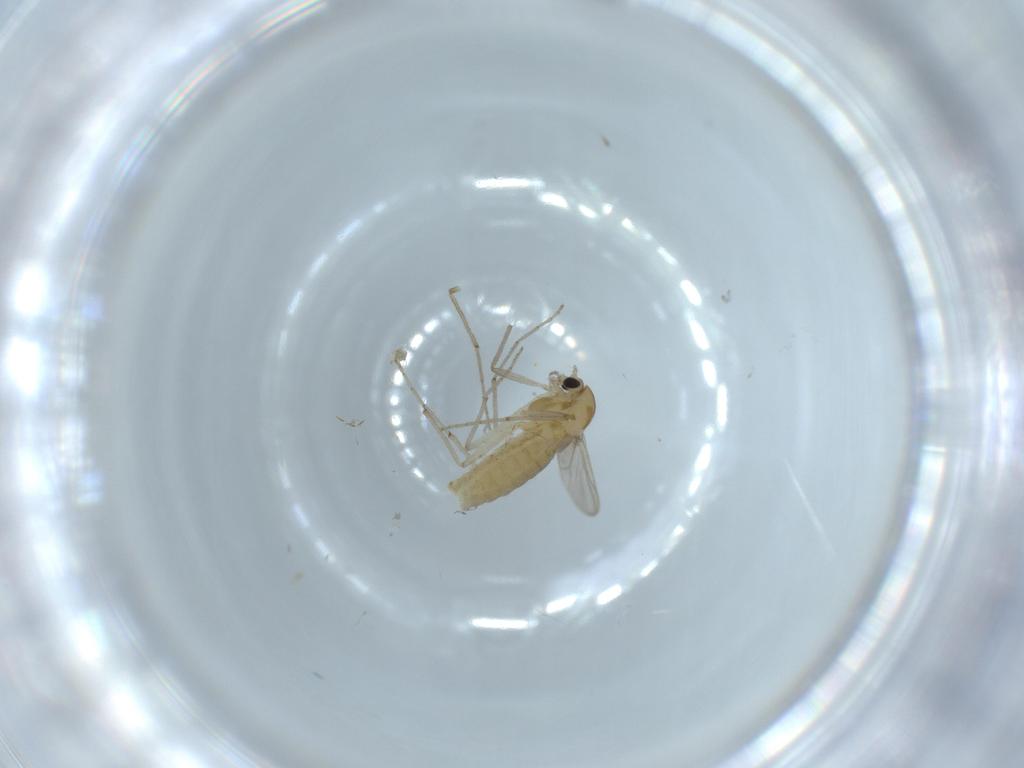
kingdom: Animalia
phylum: Arthropoda
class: Insecta
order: Diptera
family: Chironomidae
